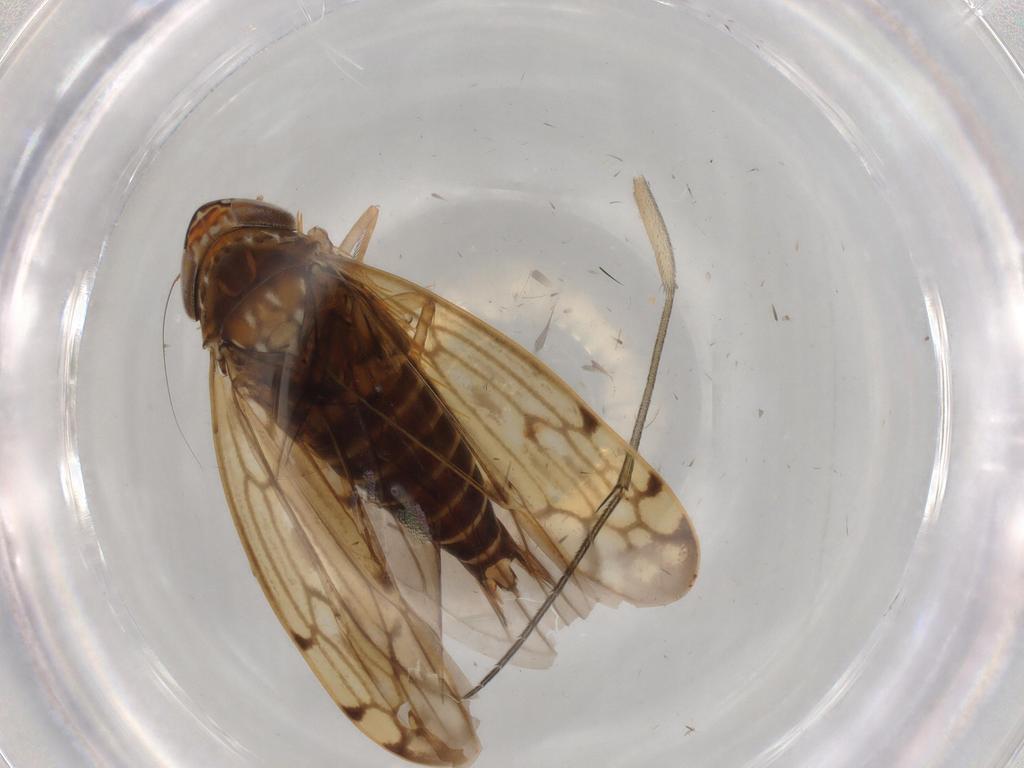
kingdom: Animalia
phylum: Arthropoda
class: Insecta
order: Hemiptera
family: Cicadellidae
